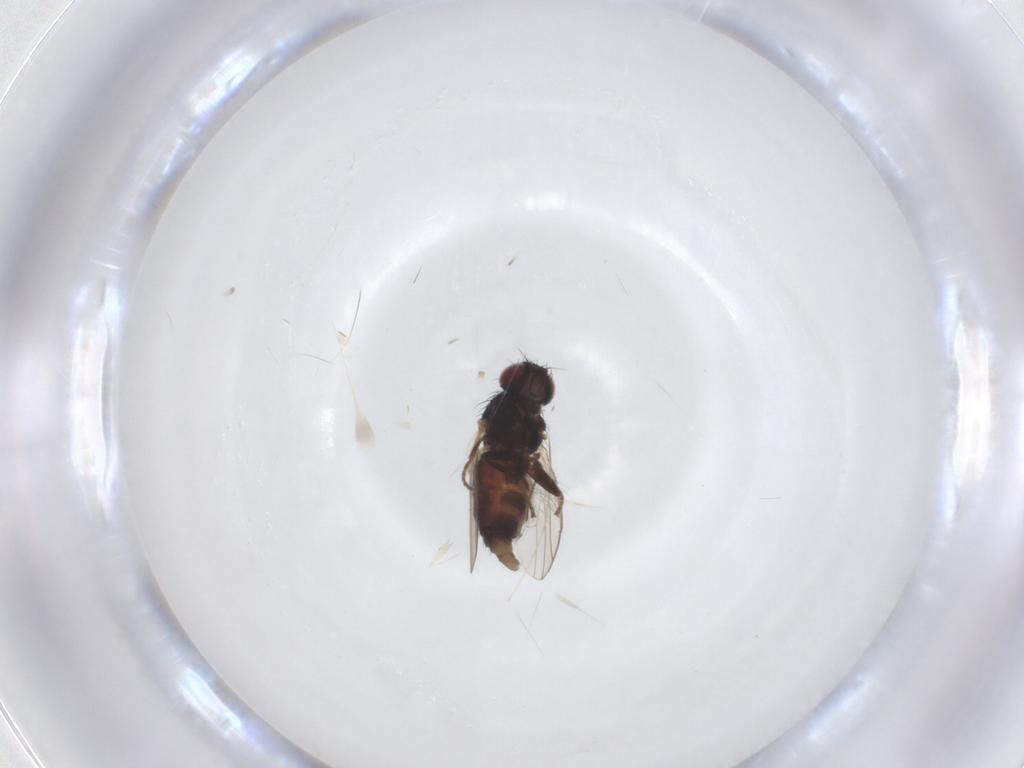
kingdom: Animalia
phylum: Arthropoda
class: Insecta
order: Diptera
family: Carnidae
